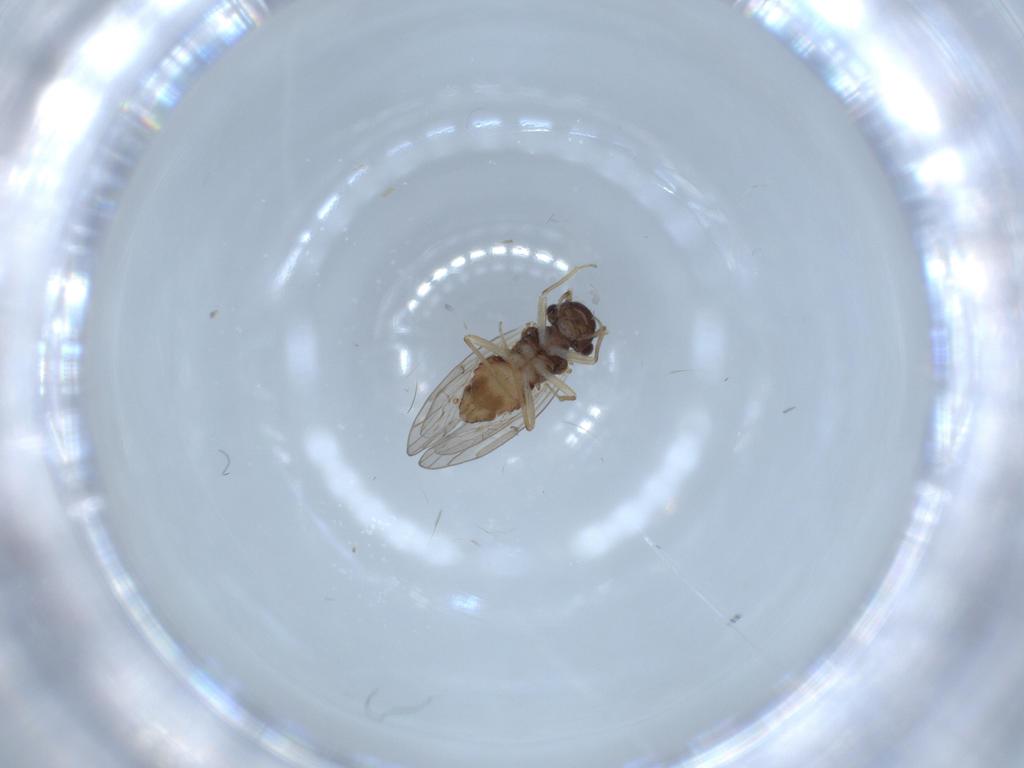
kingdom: Animalia
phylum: Arthropoda
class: Insecta
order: Psocodea
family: Ectopsocidae
